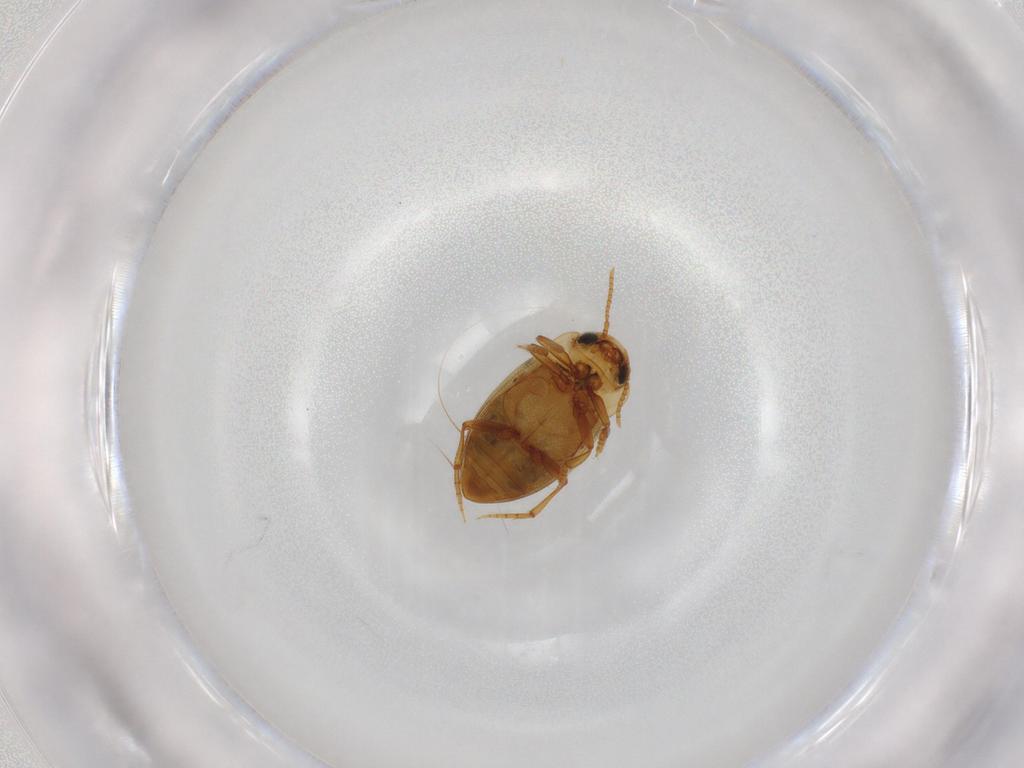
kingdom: Animalia
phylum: Arthropoda
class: Insecta
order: Coleoptera
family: Dytiscidae
